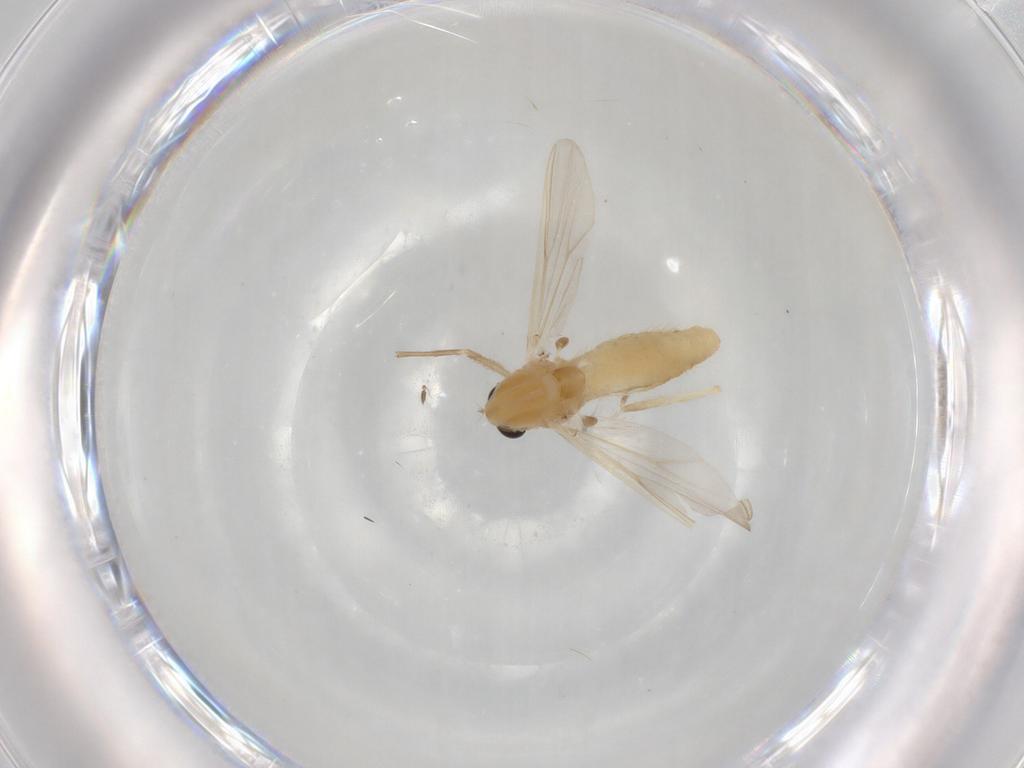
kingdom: Animalia
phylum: Arthropoda
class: Insecta
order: Diptera
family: Chironomidae
